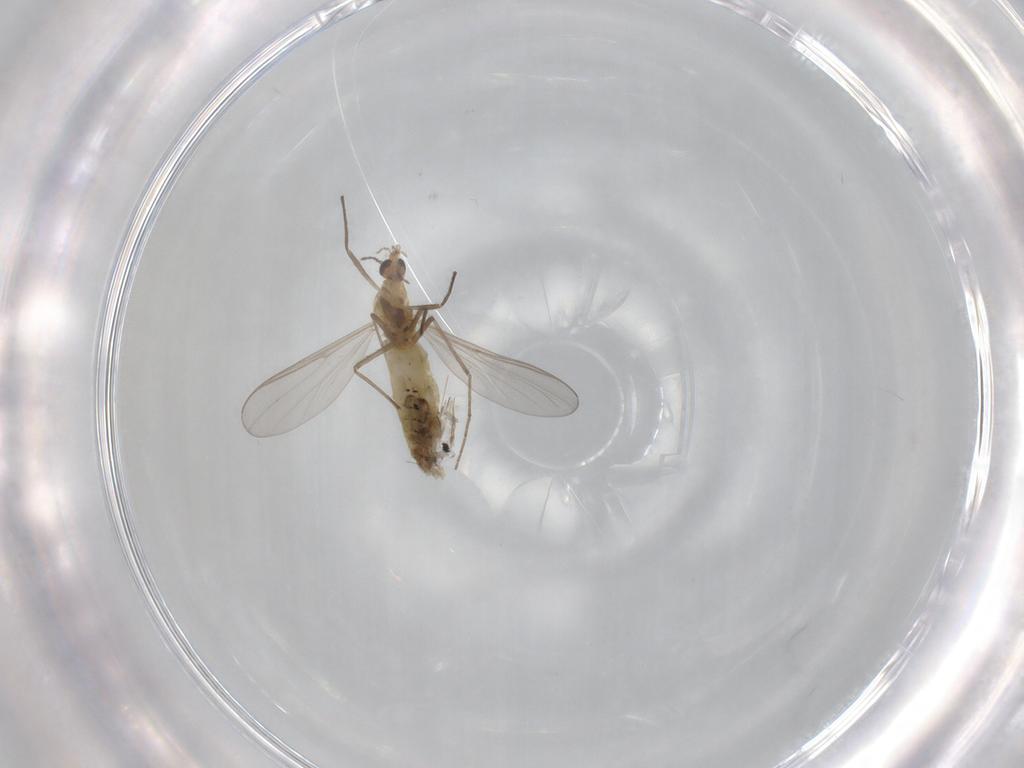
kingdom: Animalia
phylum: Arthropoda
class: Insecta
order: Diptera
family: Chironomidae
